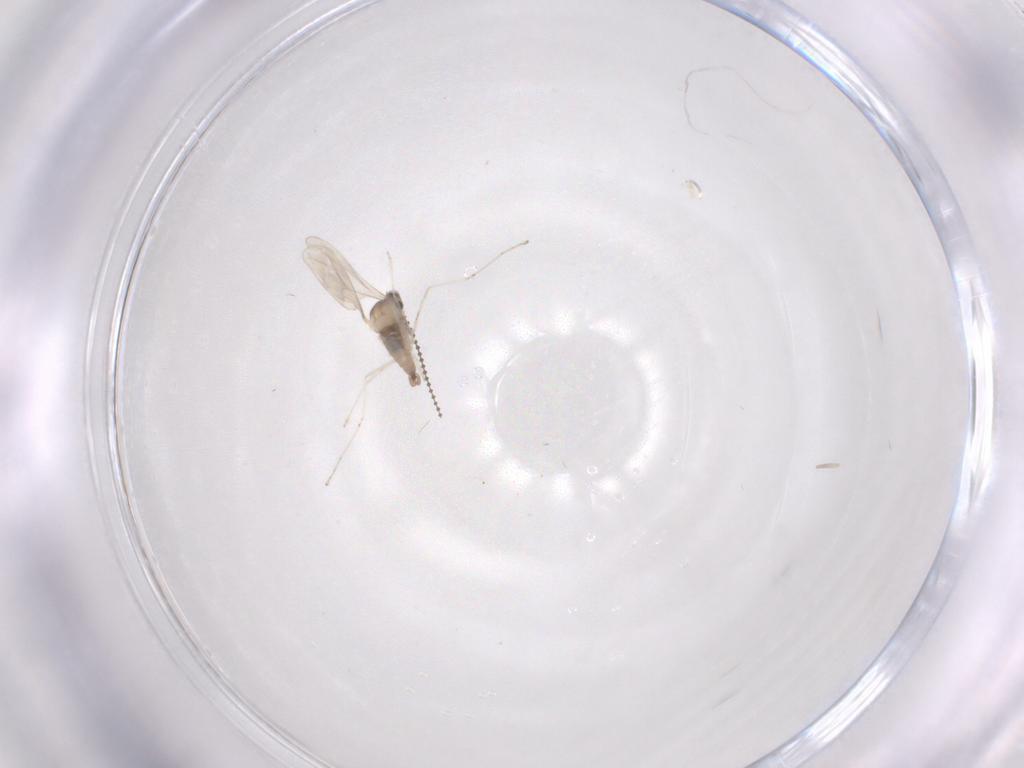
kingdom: Animalia
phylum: Arthropoda
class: Insecta
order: Diptera
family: Cecidomyiidae
